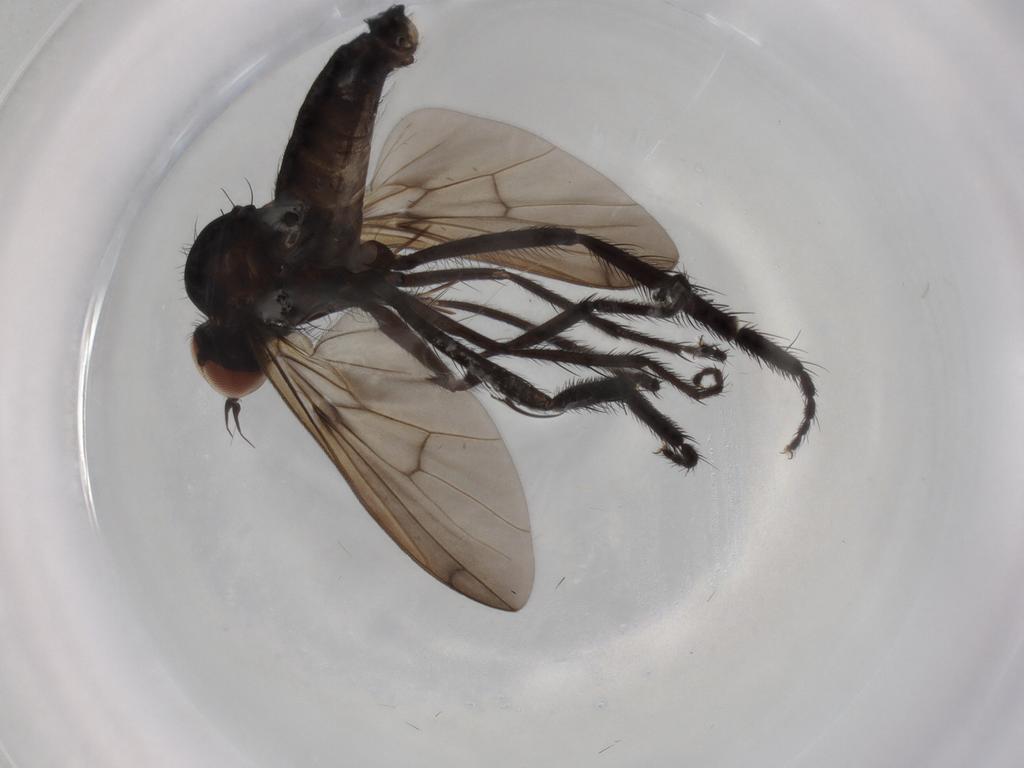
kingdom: Animalia
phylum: Arthropoda
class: Insecta
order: Diptera
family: Empididae
